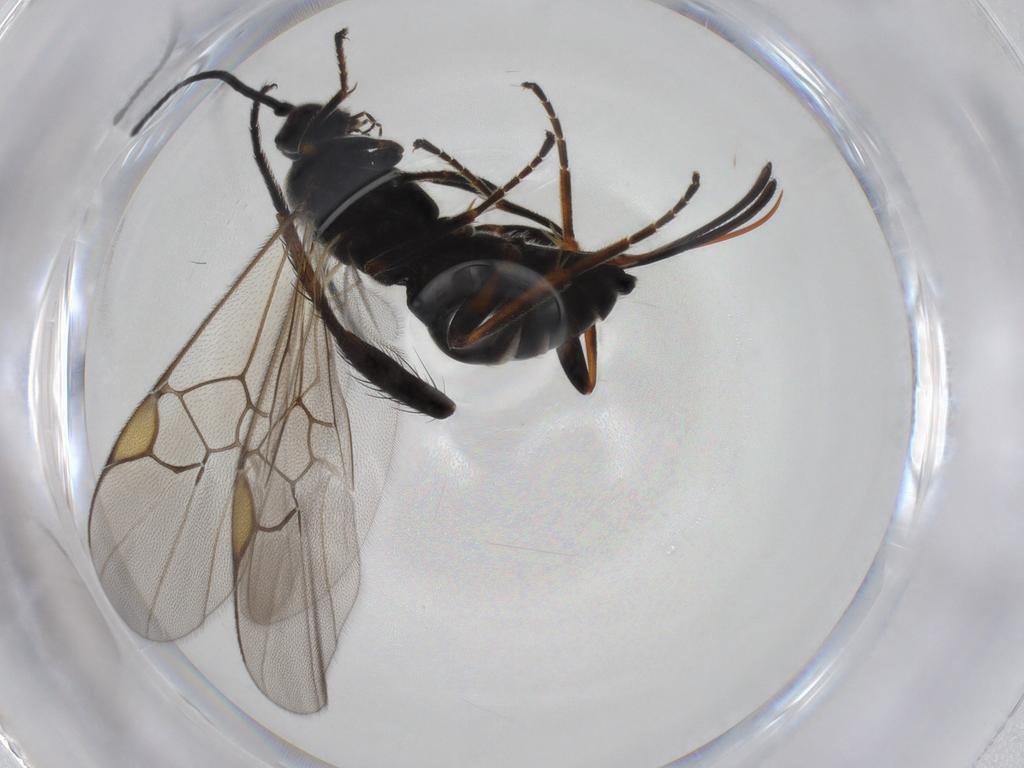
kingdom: Animalia
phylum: Arthropoda
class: Insecta
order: Hymenoptera
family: Braconidae
